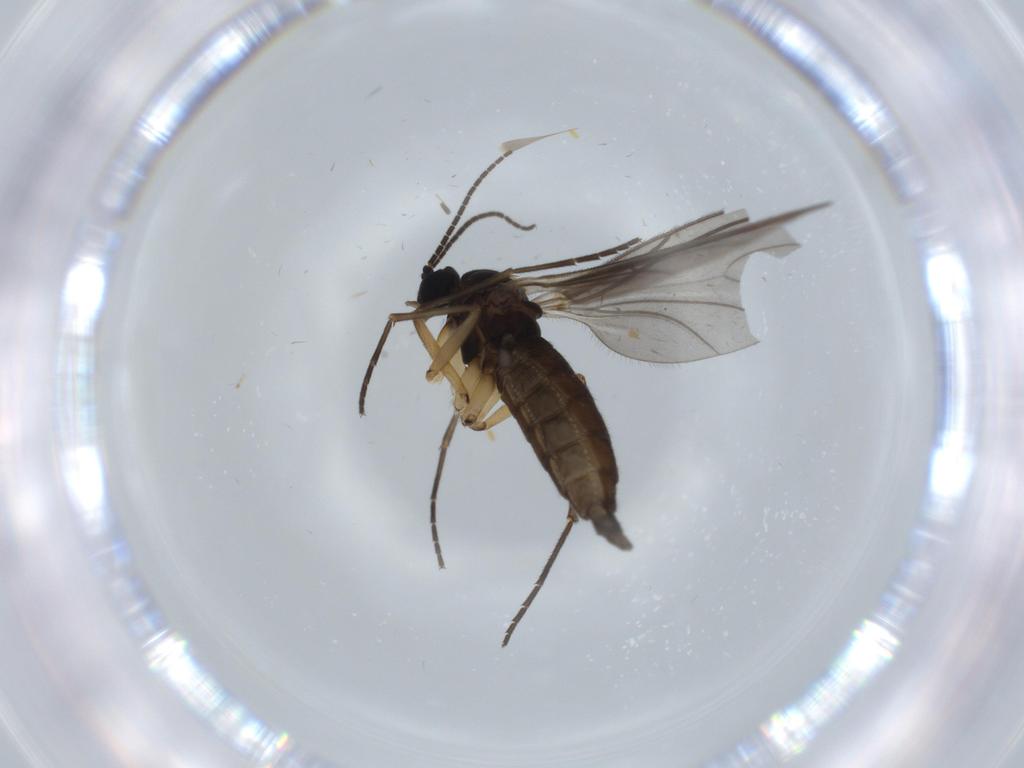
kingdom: Animalia
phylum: Arthropoda
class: Insecta
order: Diptera
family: Sciaridae
